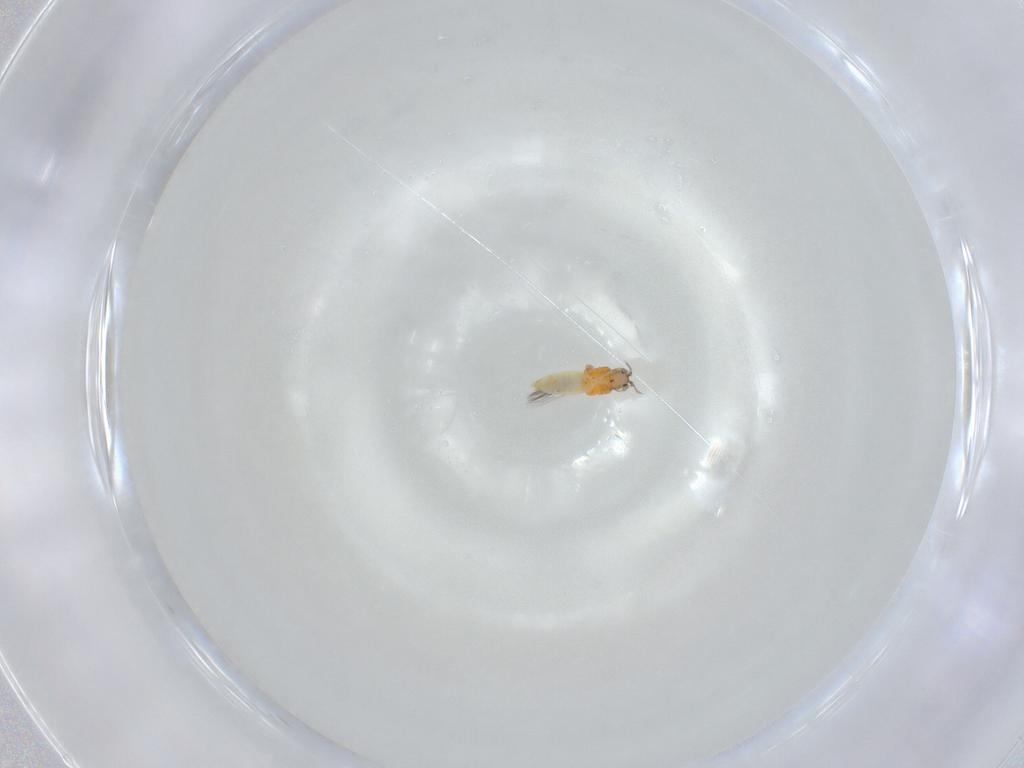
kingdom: Animalia
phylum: Arthropoda
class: Insecta
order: Thysanoptera
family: Thripidae
